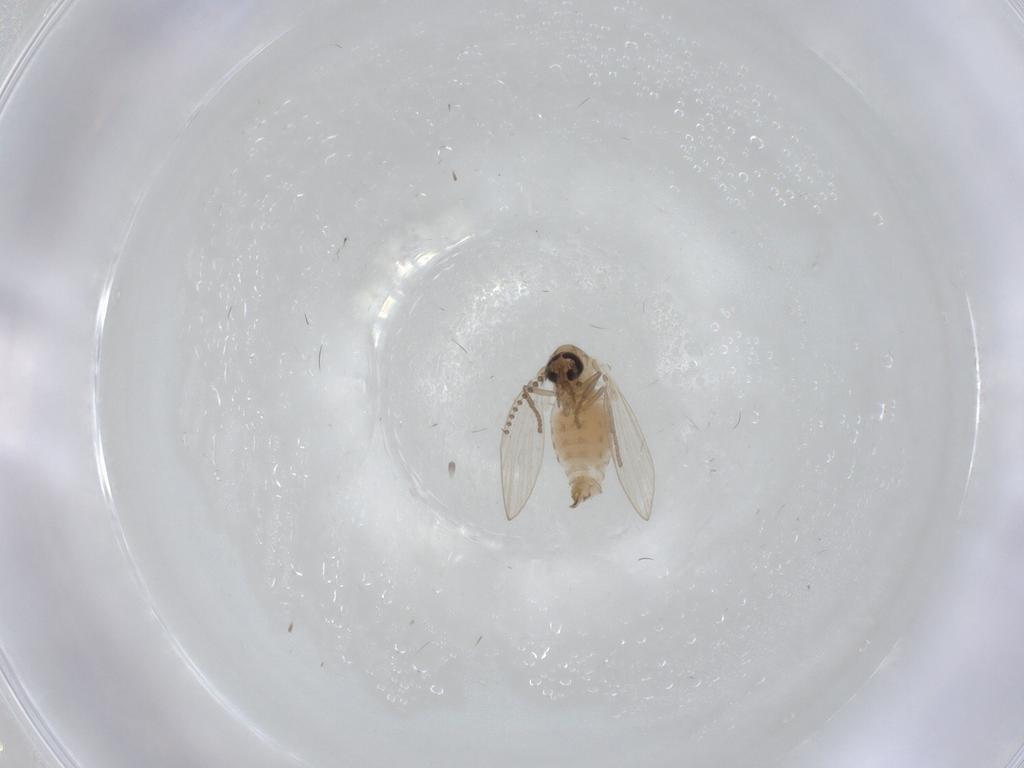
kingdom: Animalia
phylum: Arthropoda
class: Insecta
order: Diptera
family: Psychodidae
